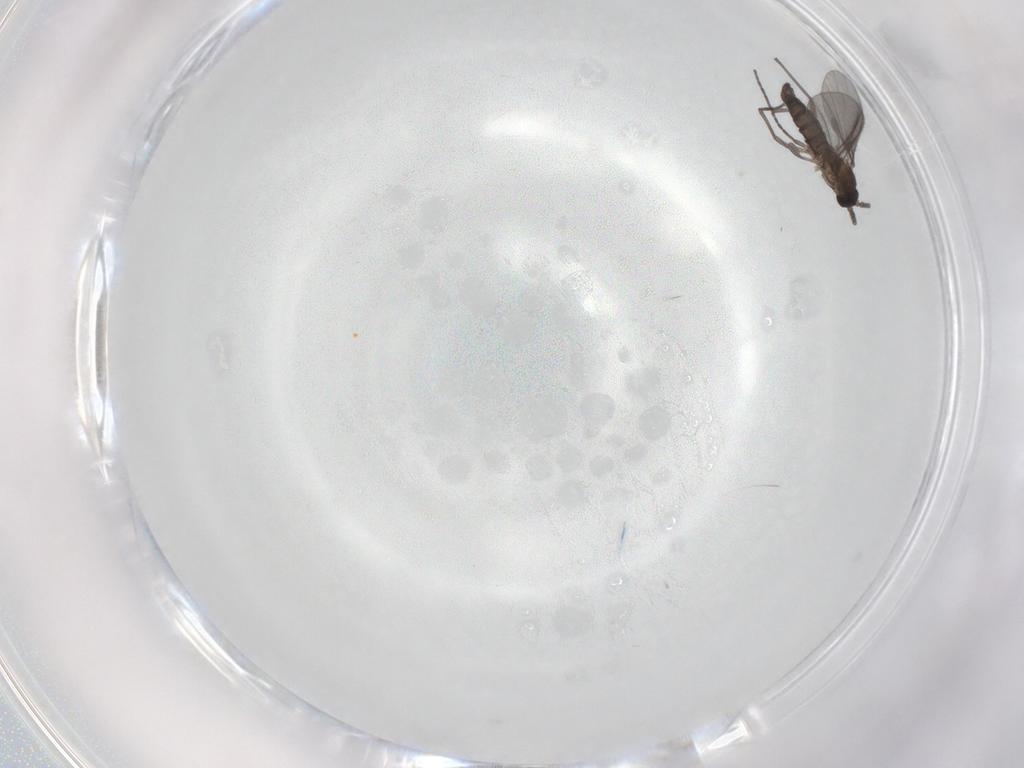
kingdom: Animalia
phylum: Arthropoda
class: Insecta
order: Diptera
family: Sciaridae
